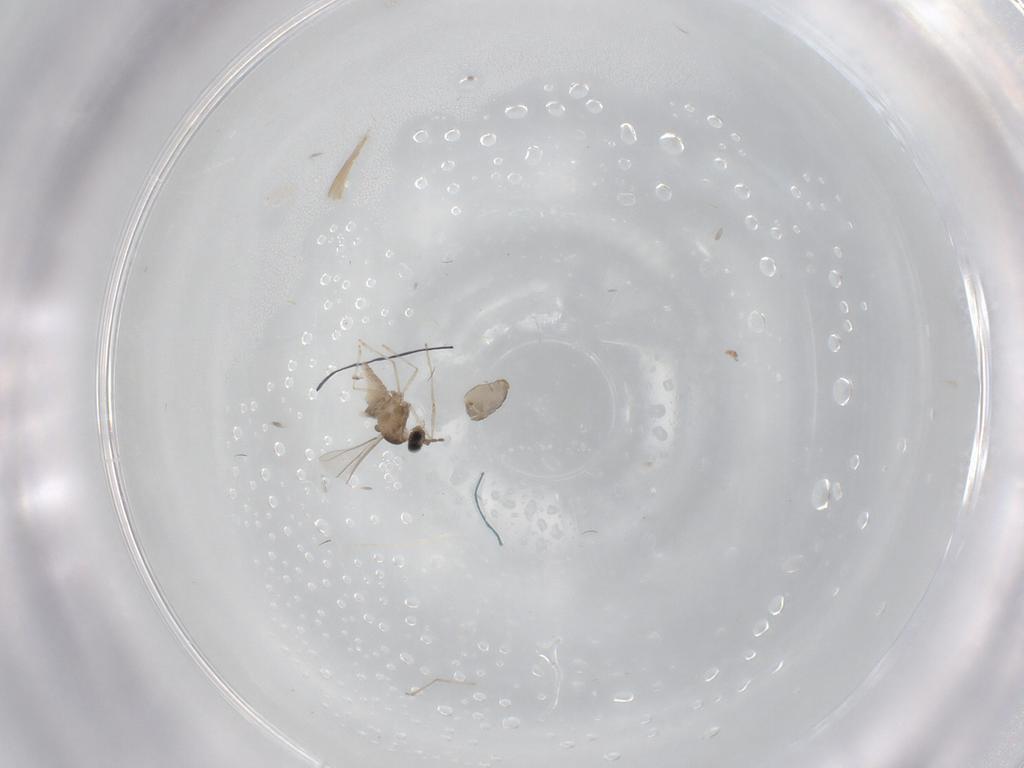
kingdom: Animalia
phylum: Arthropoda
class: Insecta
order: Diptera
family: Cecidomyiidae
